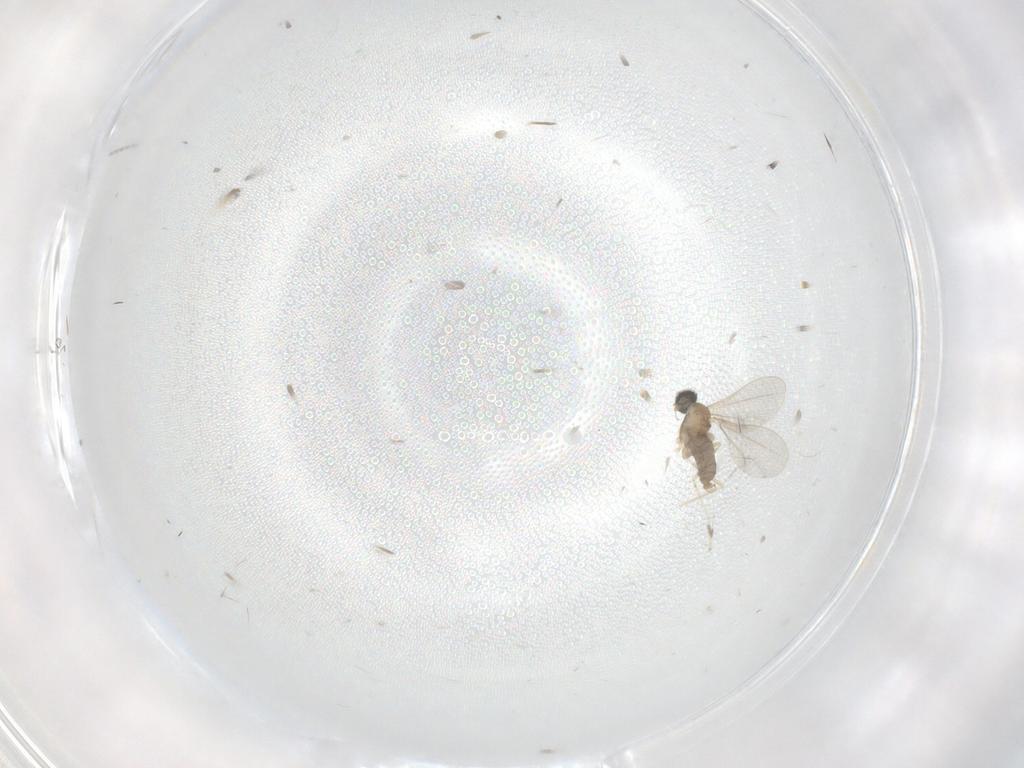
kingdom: Animalia
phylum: Arthropoda
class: Insecta
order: Diptera
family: Cecidomyiidae
